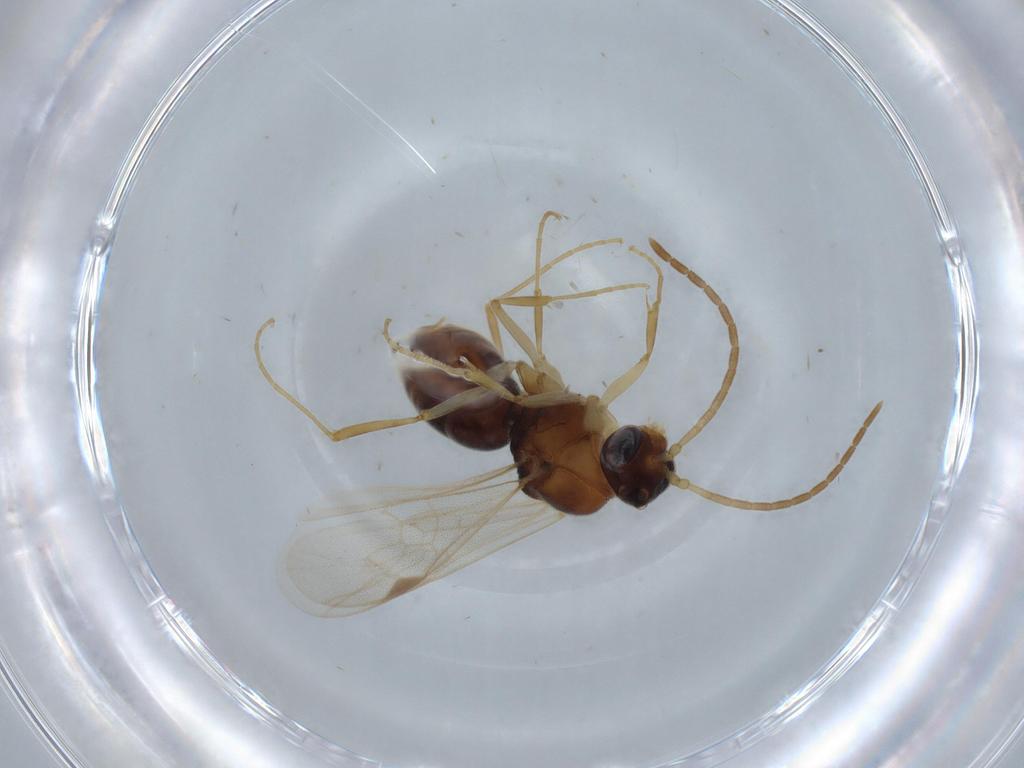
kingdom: Animalia
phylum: Arthropoda
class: Insecta
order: Hymenoptera
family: Formicidae
